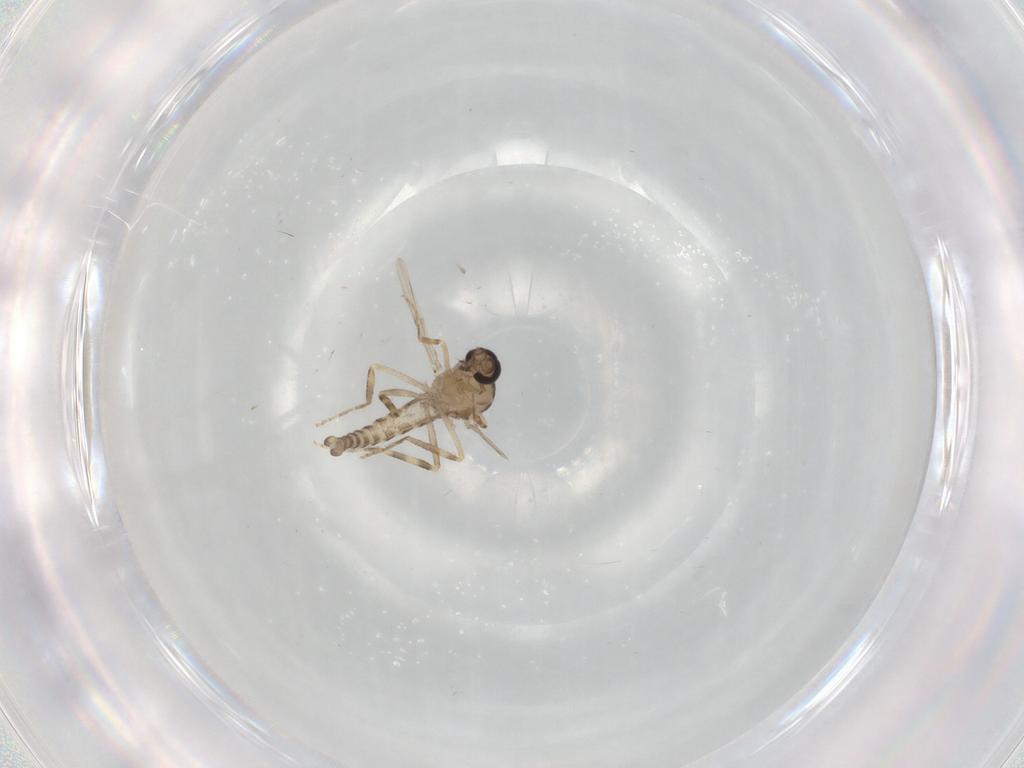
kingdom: Animalia
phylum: Arthropoda
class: Insecta
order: Diptera
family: Ceratopogonidae
